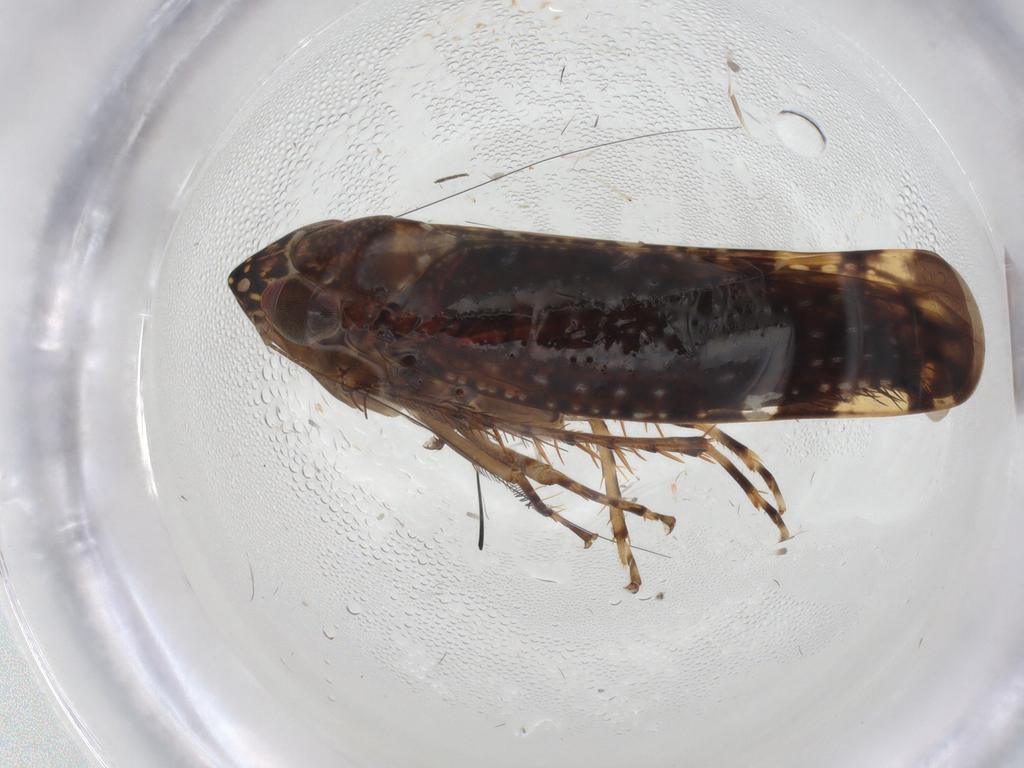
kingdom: Animalia
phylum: Arthropoda
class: Insecta
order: Hemiptera
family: Cicadellidae
